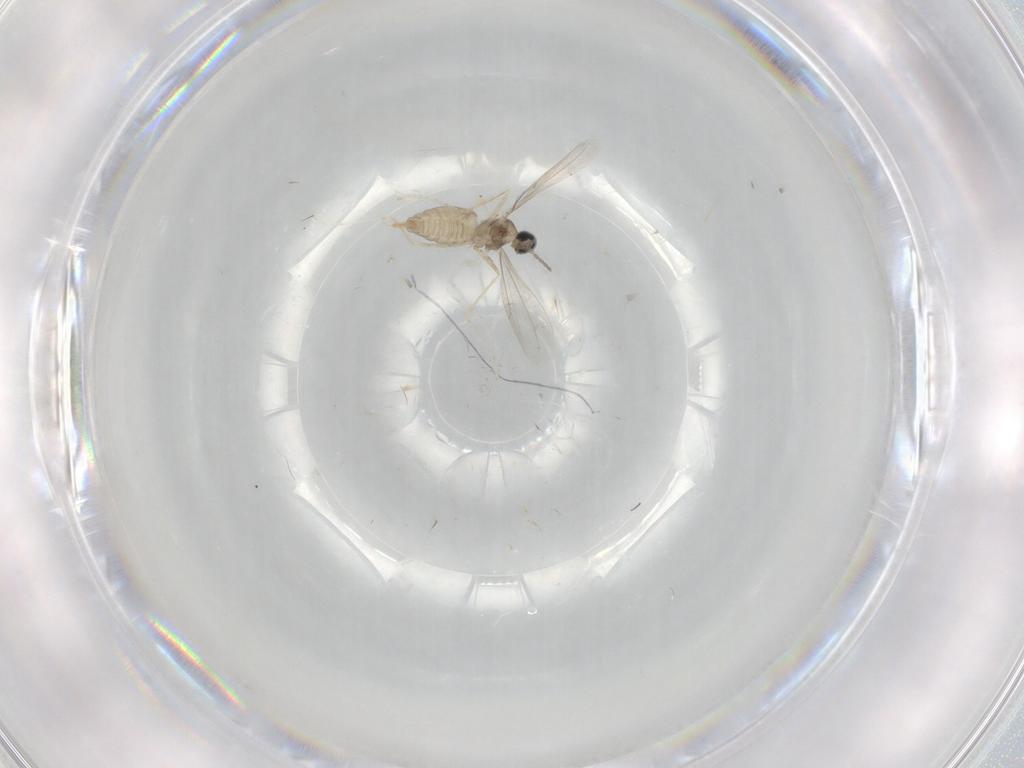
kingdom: Animalia
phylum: Arthropoda
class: Insecta
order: Diptera
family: Cecidomyiidae
